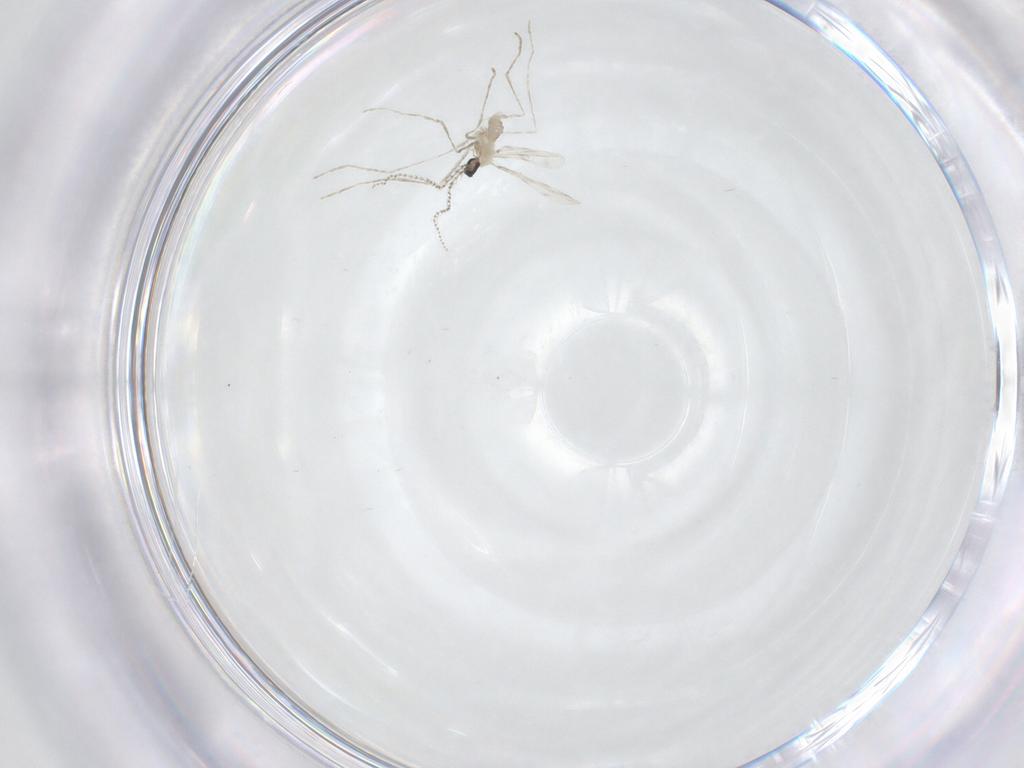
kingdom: Animalia
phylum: Arthropoda
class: Insecta
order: Diptera
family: Cecidomyiidae
